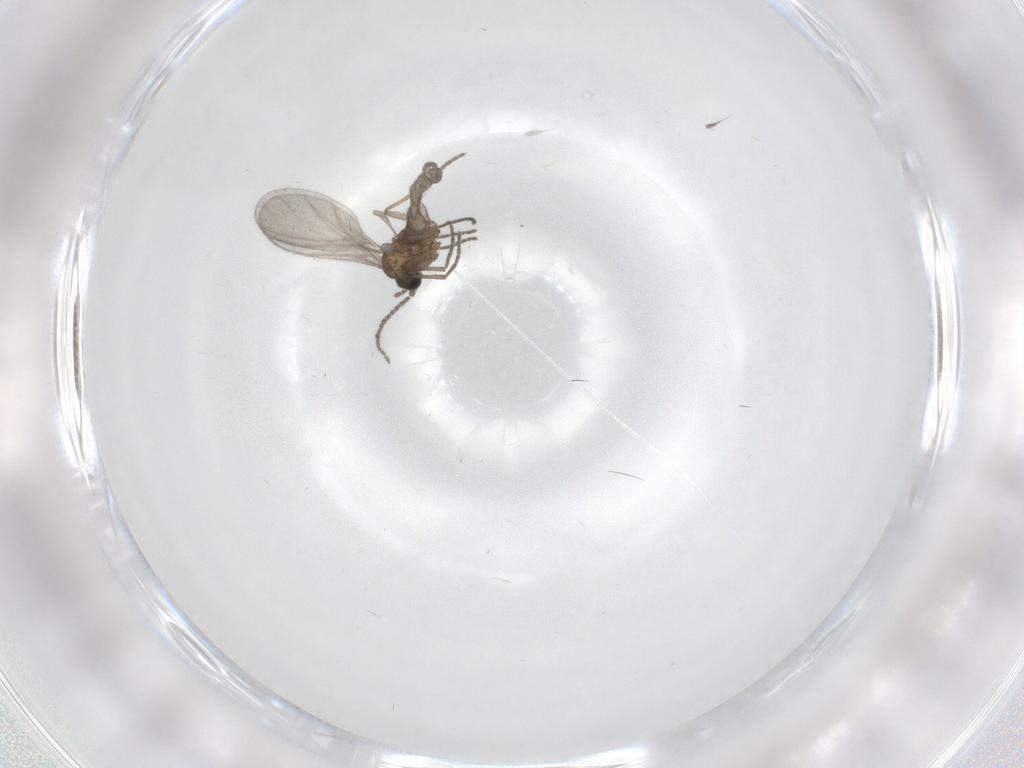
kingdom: Animalia
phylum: Arthropoda
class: Insecta
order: Diptera
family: Sciaridae
